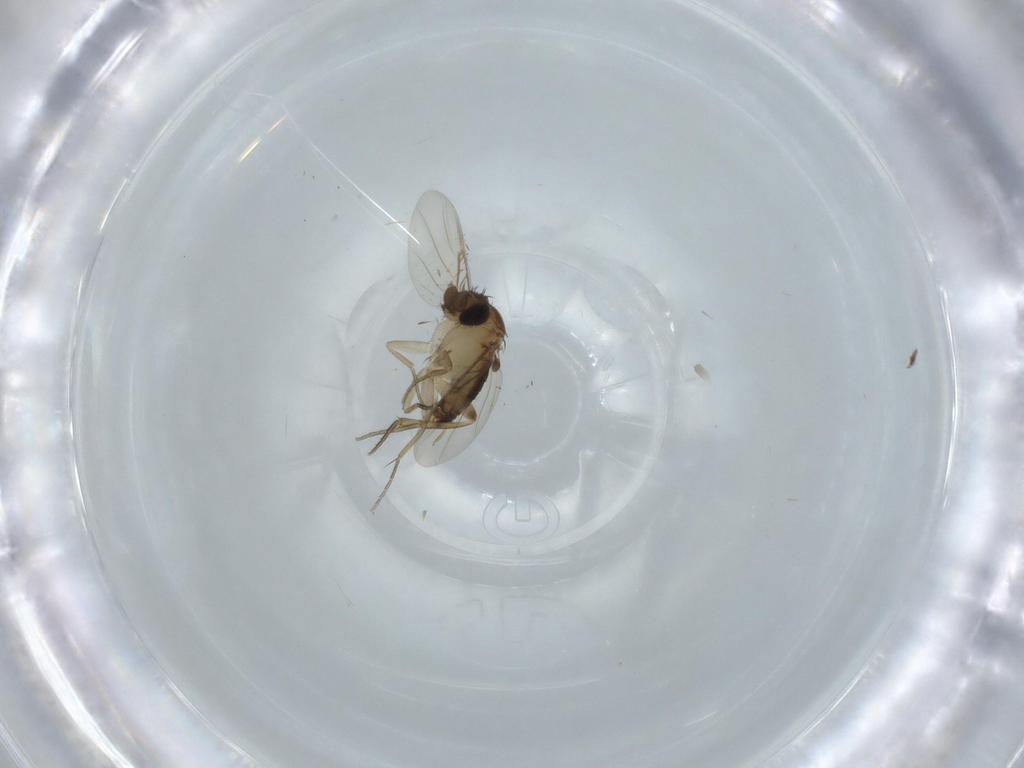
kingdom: Animalia
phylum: Arthropoda
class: Insecta
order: Diptera
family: Phoridae
